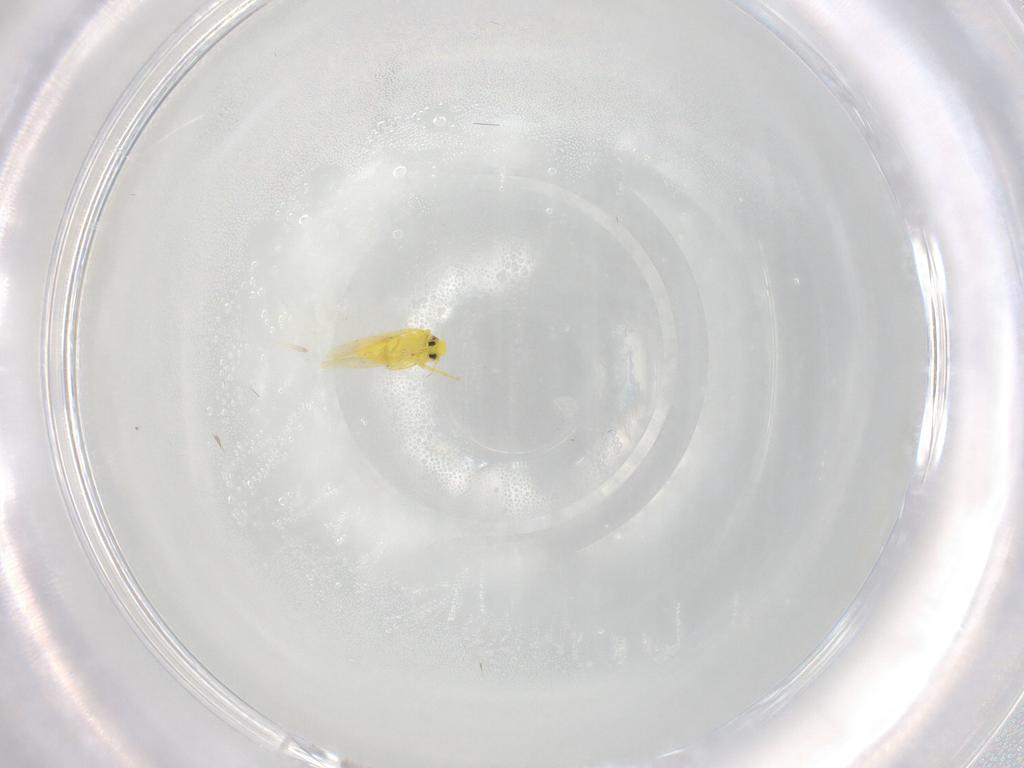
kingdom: Animalia
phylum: Arthropoda
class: Insecta
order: Hemiptera
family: Aleyrodidae
